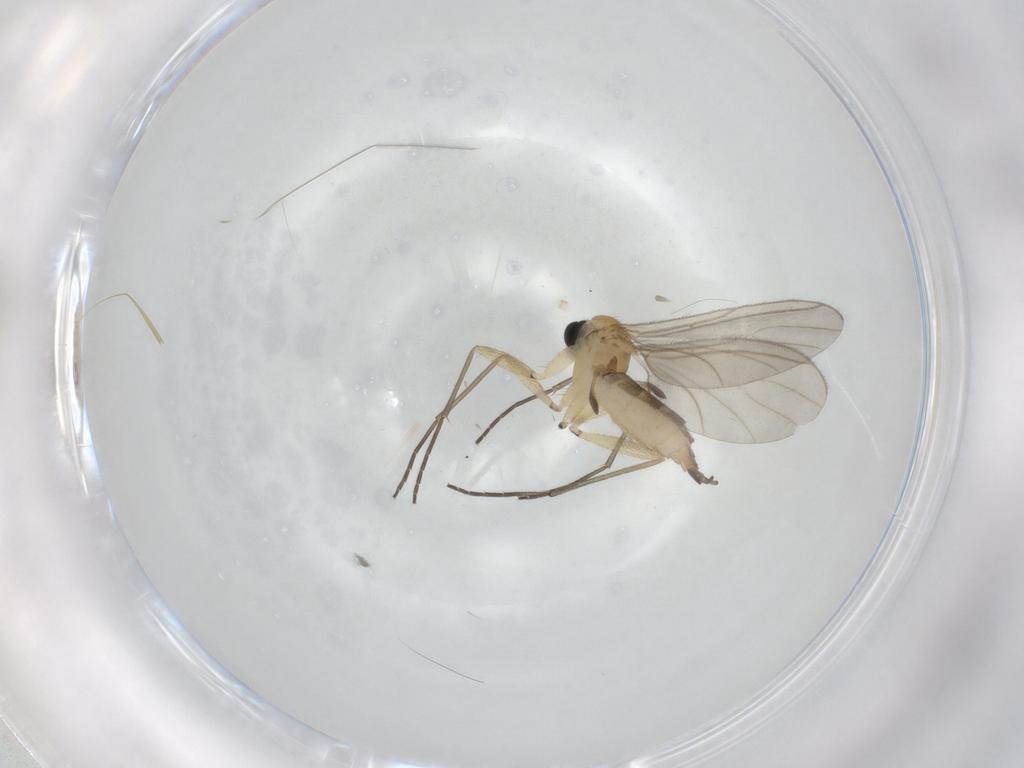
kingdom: Animalia
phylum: Arthropoda
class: Insecta
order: Diptera
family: Sciaridae
